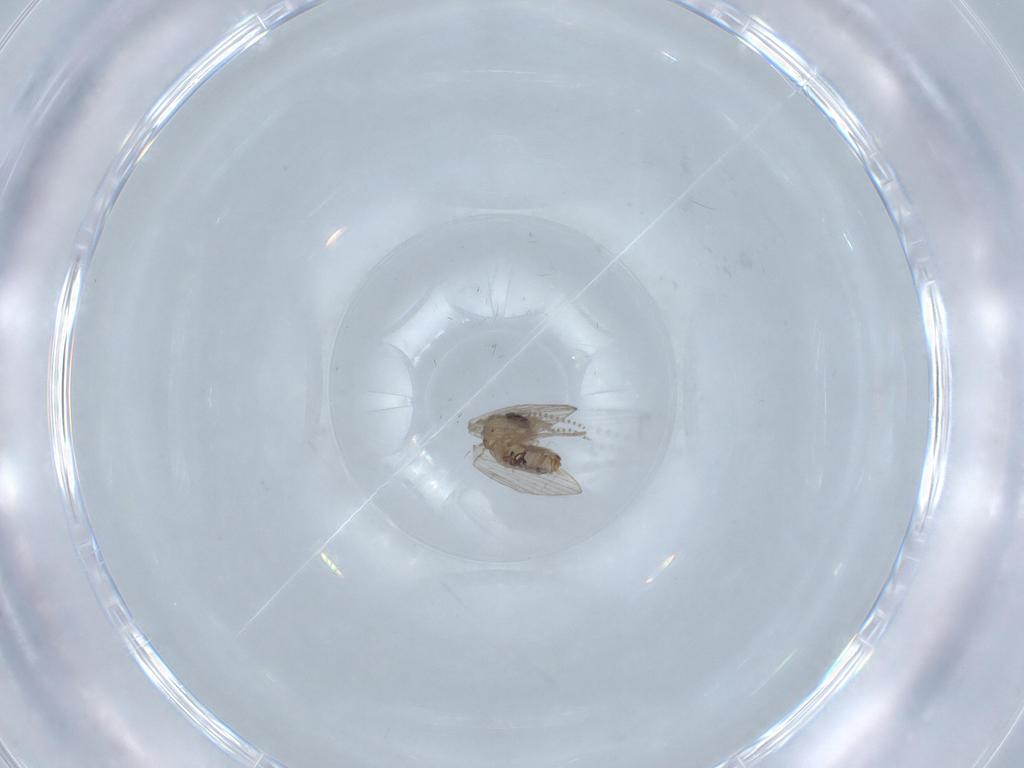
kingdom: Animalia
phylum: Arthropoda
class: Insecta
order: Diptera
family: Psychodidae
